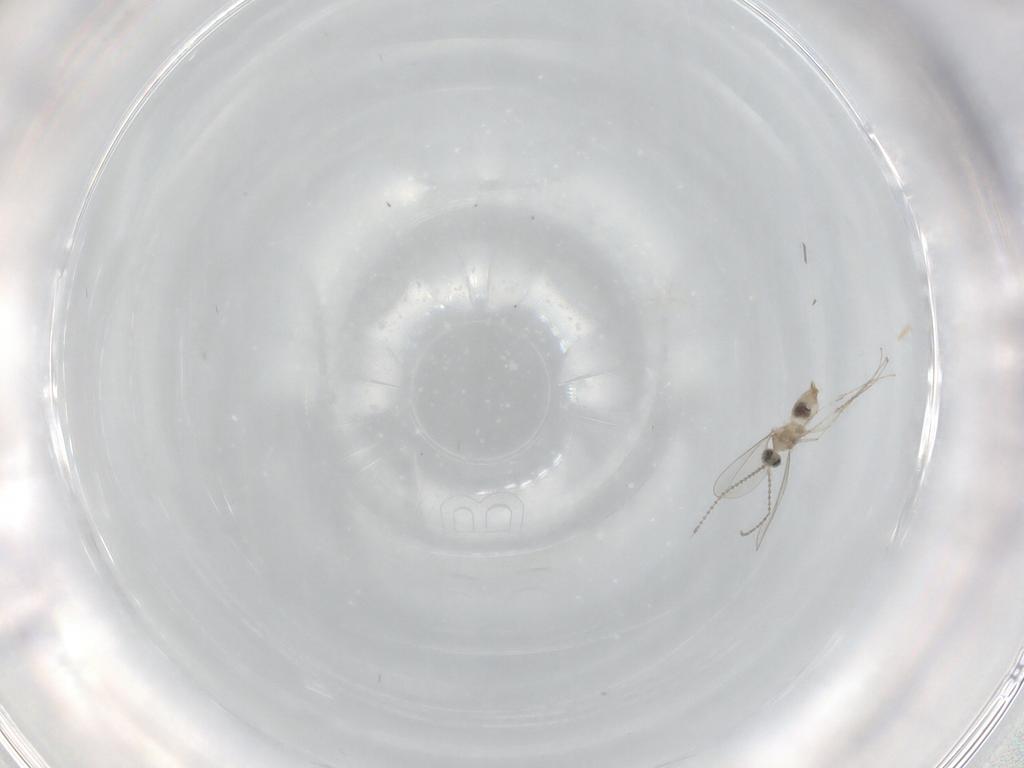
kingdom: Animalia
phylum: Arthropoda
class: Insecta
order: Diptera
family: Cecidomyiidae
